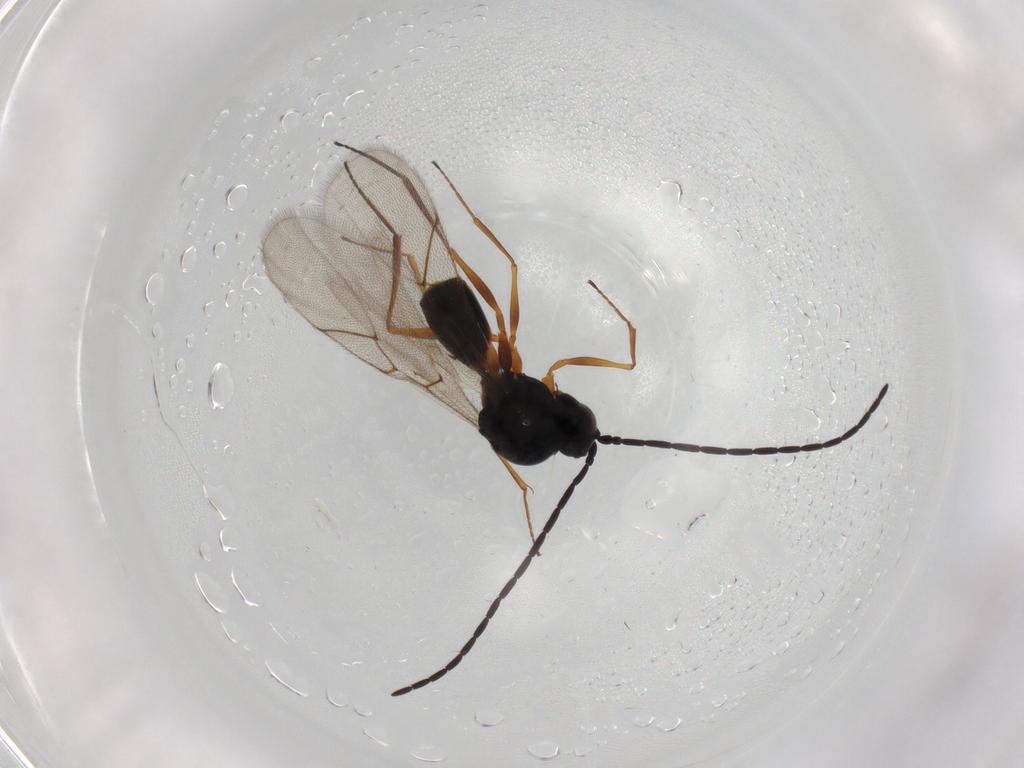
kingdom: Animalia
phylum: Arthropoda
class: Insecta
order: Hymenoptera
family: Figitidae
